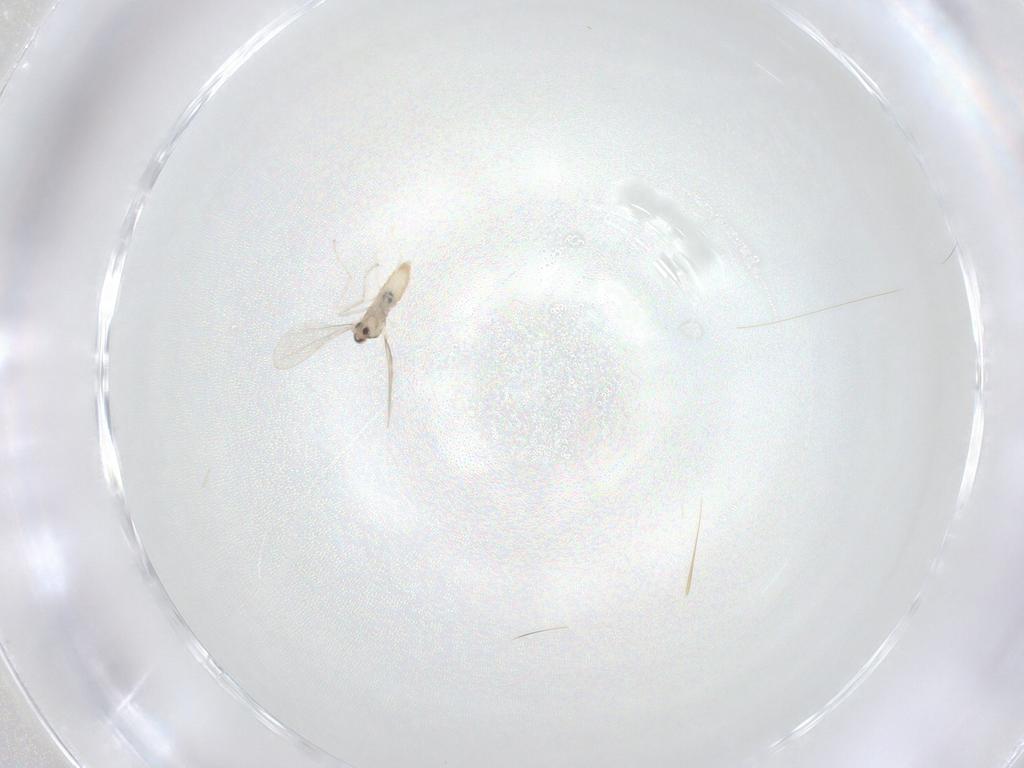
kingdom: Animalia
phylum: Arthropoda
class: Insecta
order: Diptera
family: Cecidomyiidae
